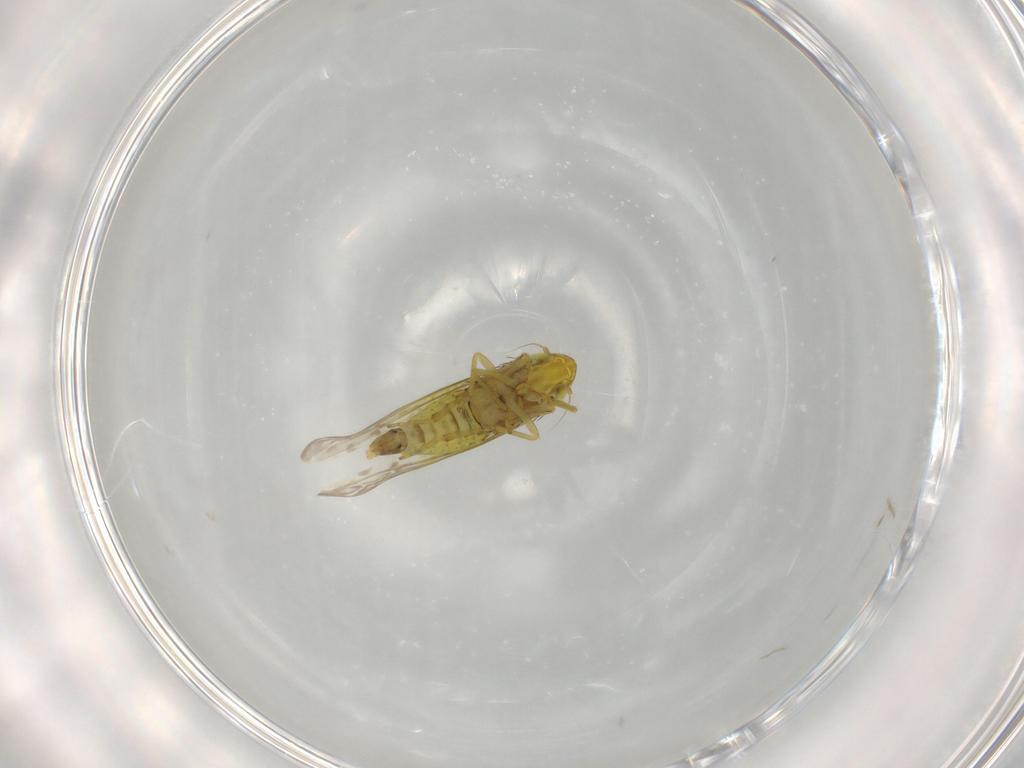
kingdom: Animalia
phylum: Arthropoda
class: Insecta
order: Hemiptera
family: Cicadellidae
